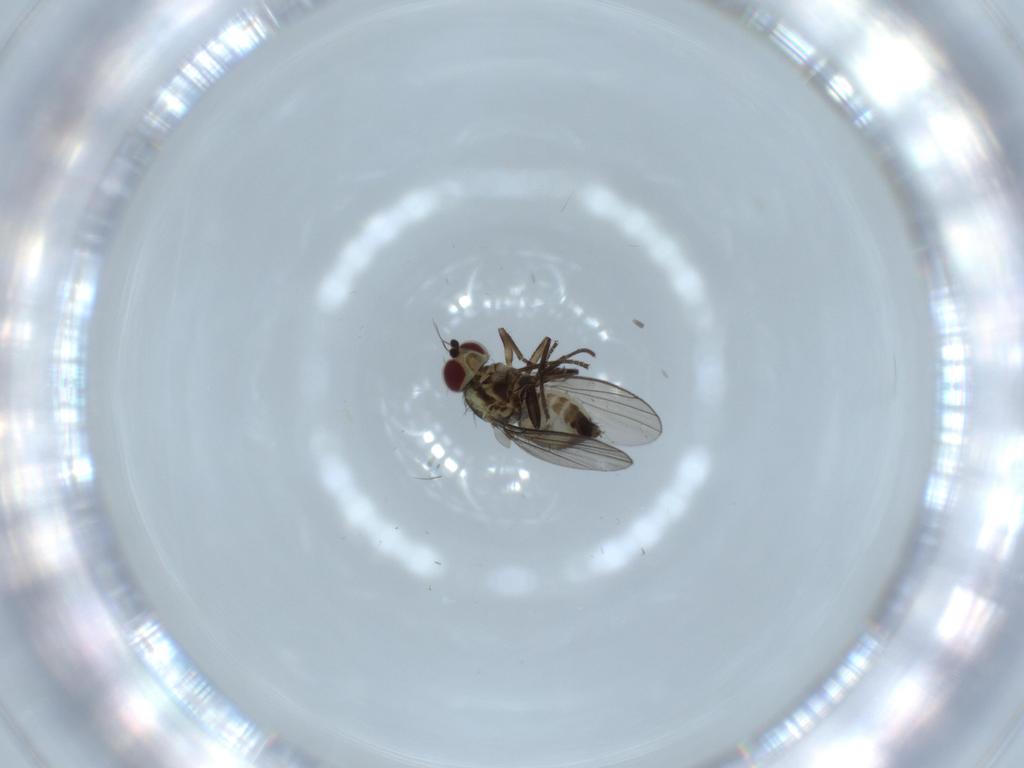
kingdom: Animalia
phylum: Arthropoda
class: Insecta
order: Diptera
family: Agromyzidae
